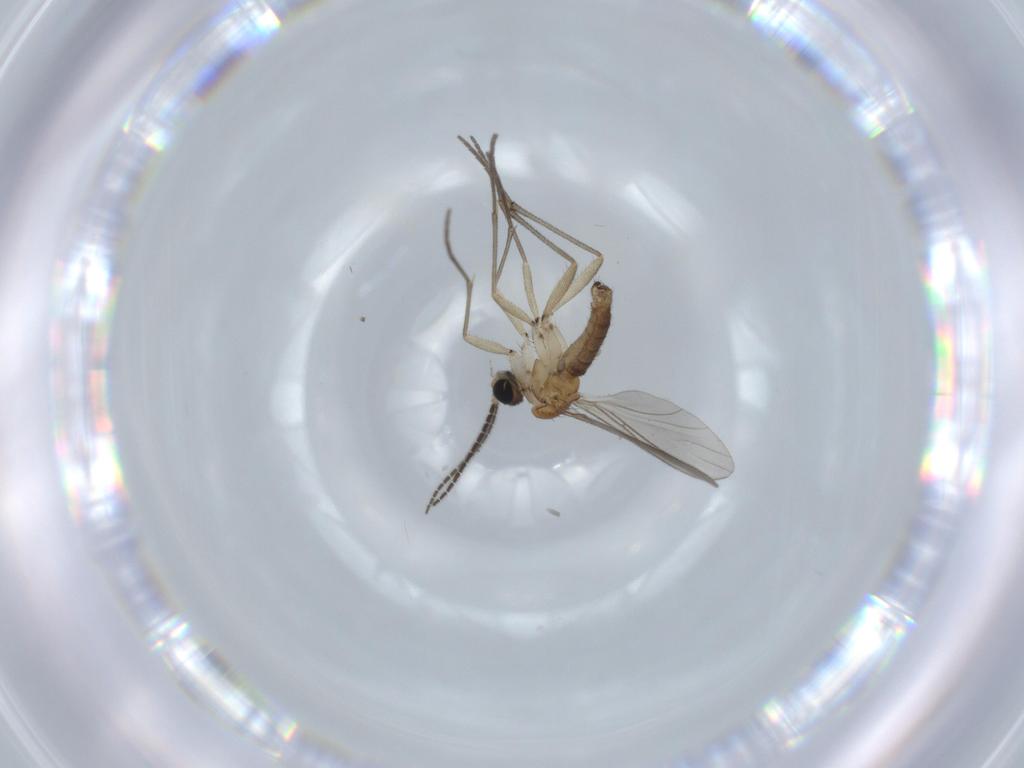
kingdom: Animalia
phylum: Arthropoda
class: Insecta
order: Diptera
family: Sciaridae
